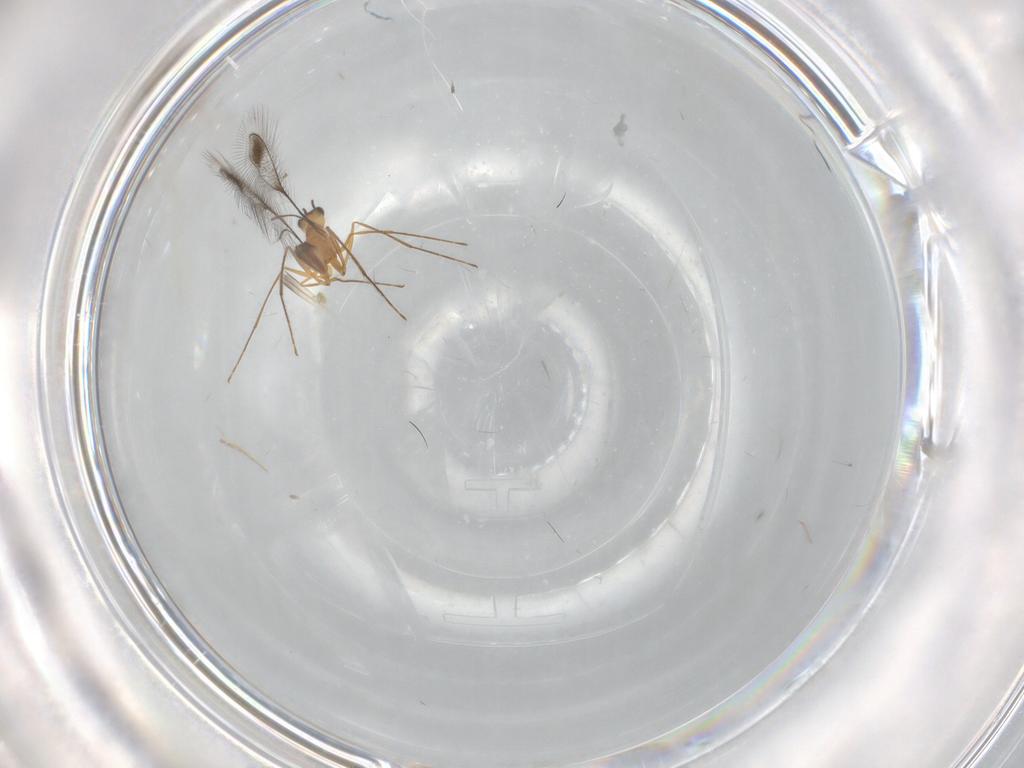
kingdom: Animalia
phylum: Arthropoda
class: Insecta
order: Hymenoptera
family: Mymaridae
